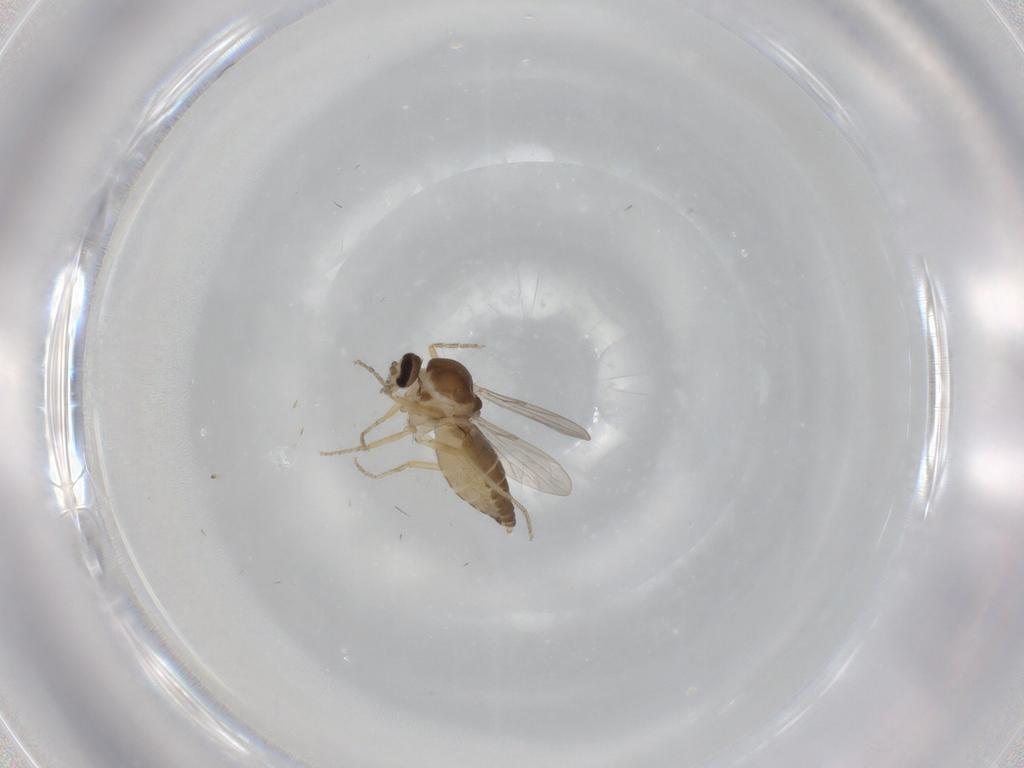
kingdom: Animalia
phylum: Arthropoda
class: Insecta
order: Diptera
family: Ceratopogonidae
